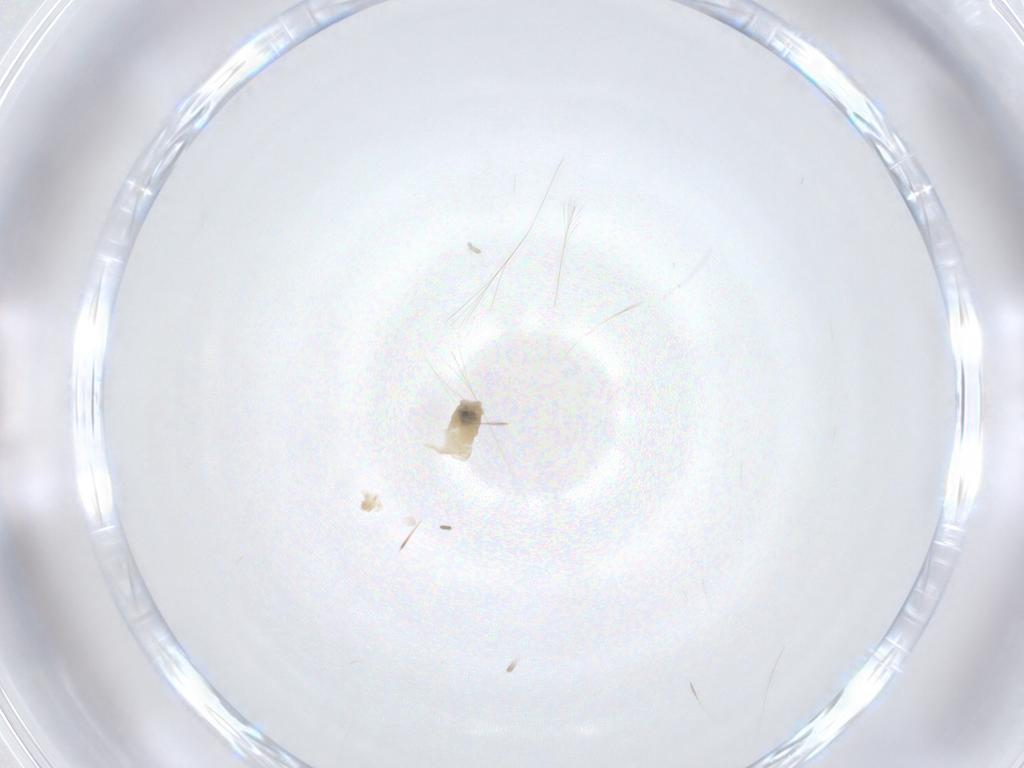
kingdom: Animalia
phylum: Arthropoda
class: Insecta
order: Diptera
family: Cecidomyiidae
